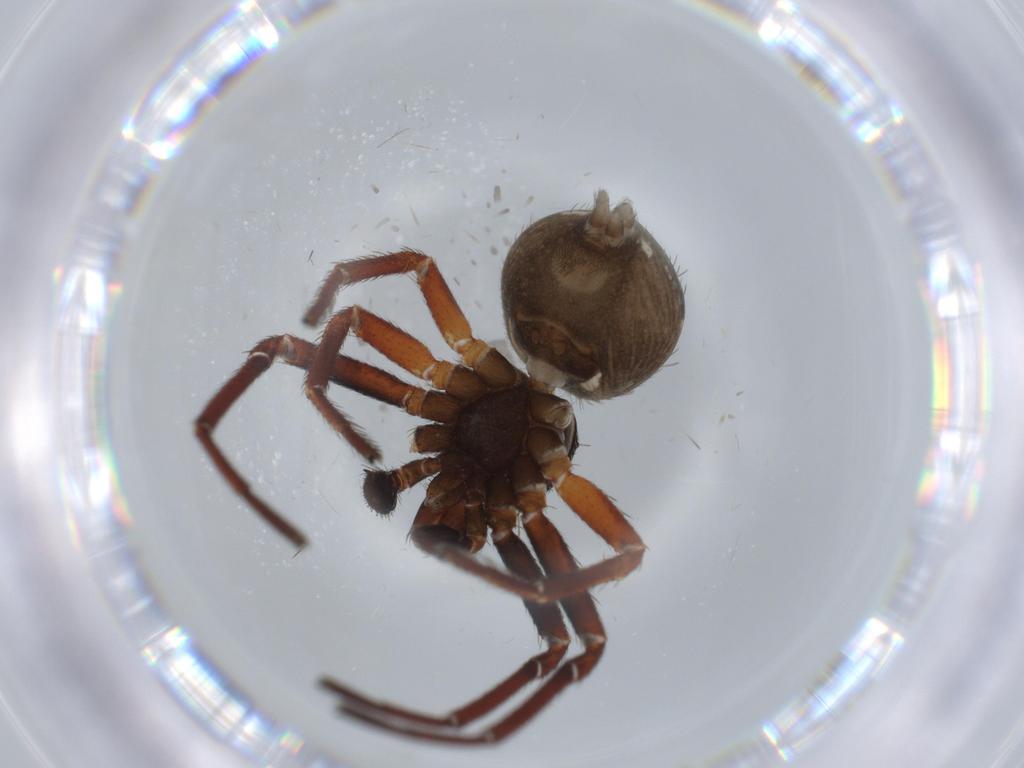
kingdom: Animalia
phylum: Arthropoda
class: Arachnida
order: Araneae
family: Thomisidae
